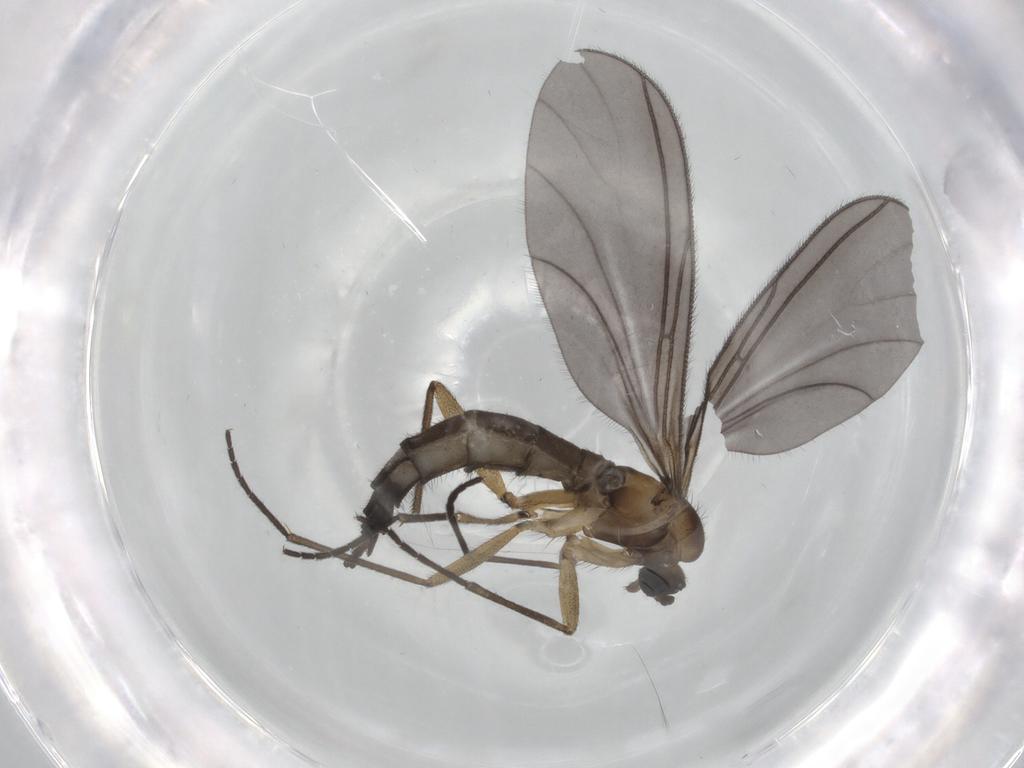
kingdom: Animalia
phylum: Arthropoda
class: Insecta
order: Diptera
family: Sciaridae
